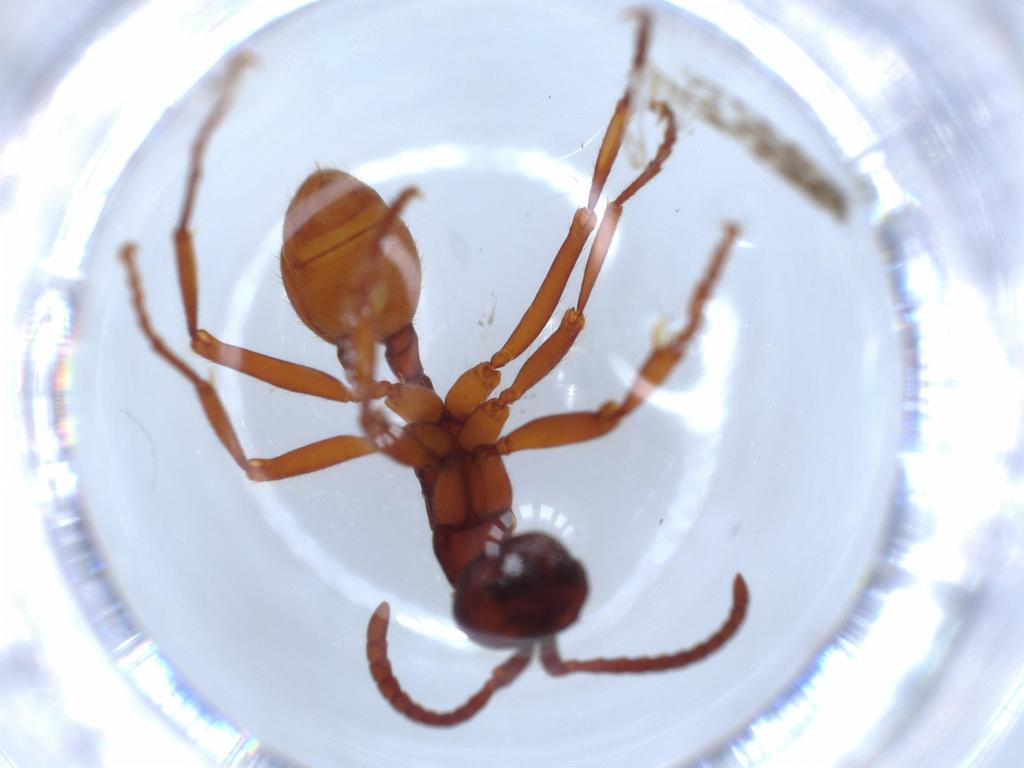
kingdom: Animalia
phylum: Arthropoda
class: Insecta
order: Hymenoptera
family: Formicidae
